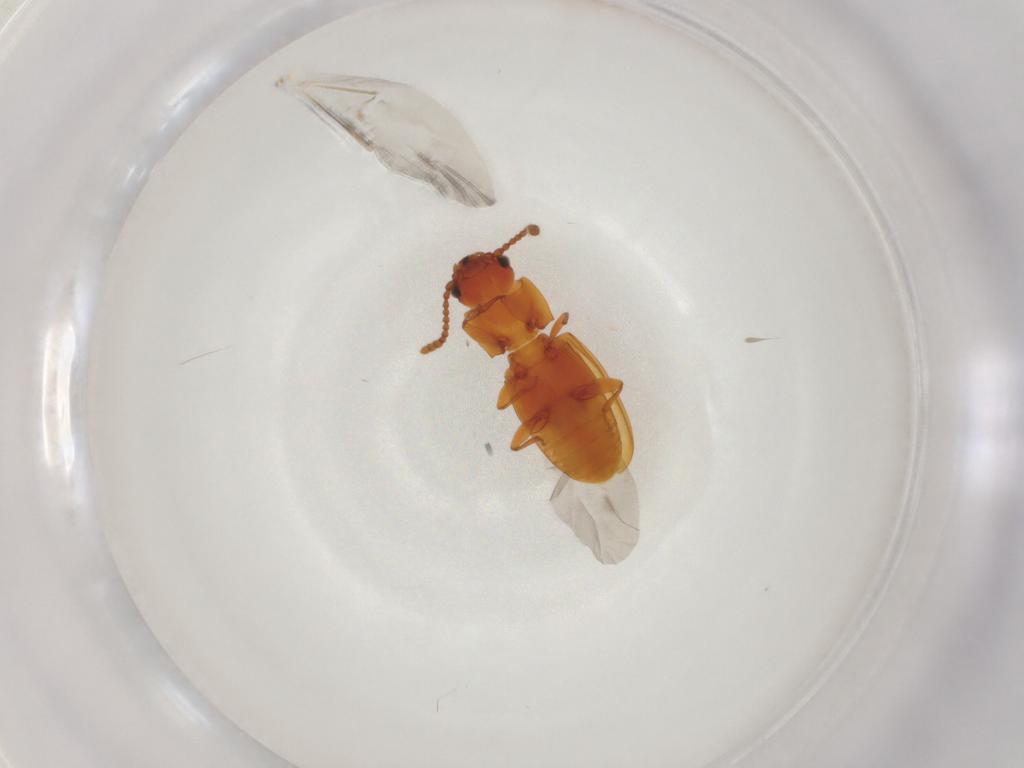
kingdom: Animalia
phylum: Arthropoda
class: Insecta
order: Coleoptera
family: Laemophloeidae
